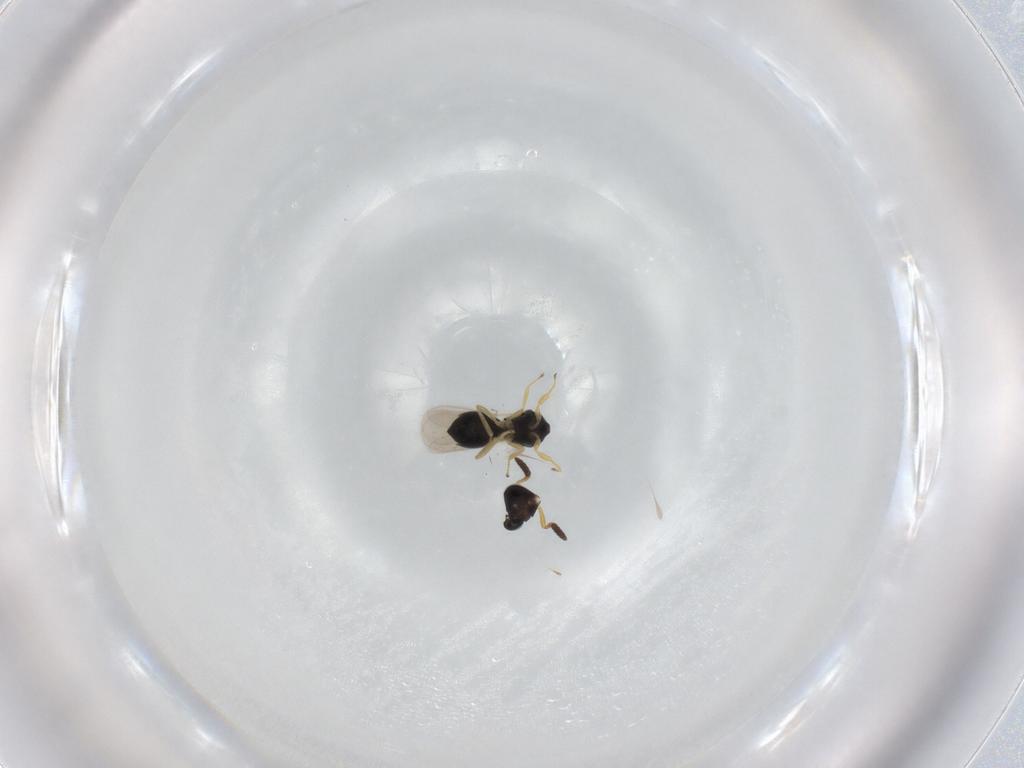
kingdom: Animalia
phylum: Arthropoda
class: Insecta
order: Hymenoptera
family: Scelionidae
